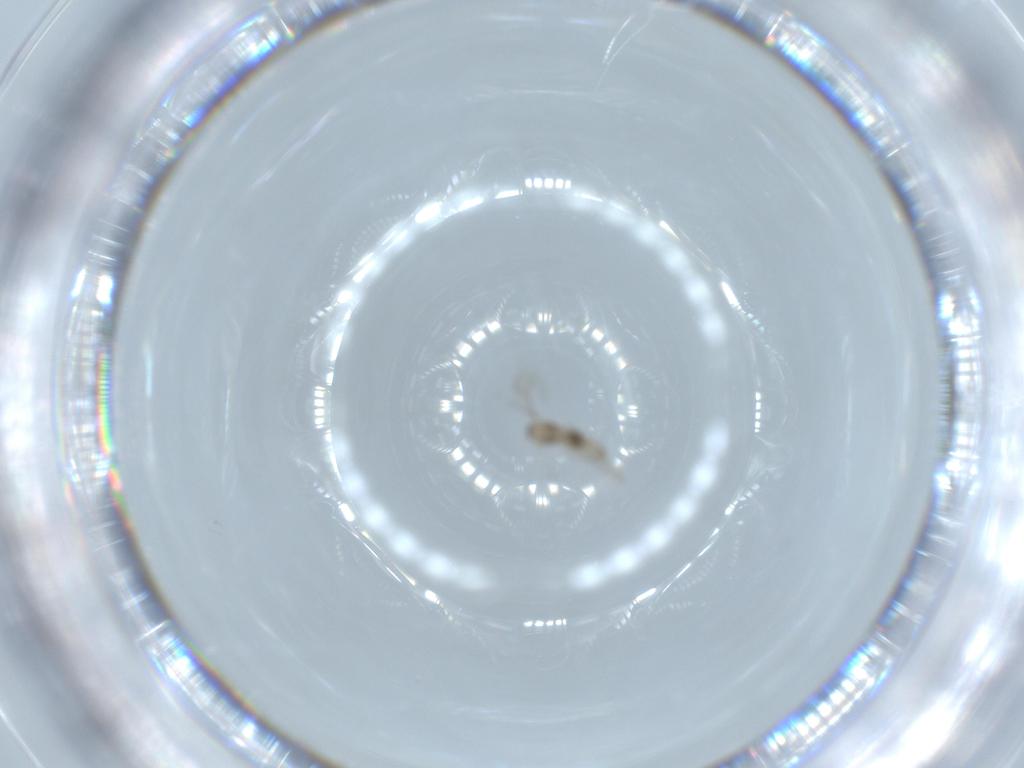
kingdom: Animalia
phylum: Arthropoda
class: Insecta
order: Diptera
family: Cecidomyiidae
